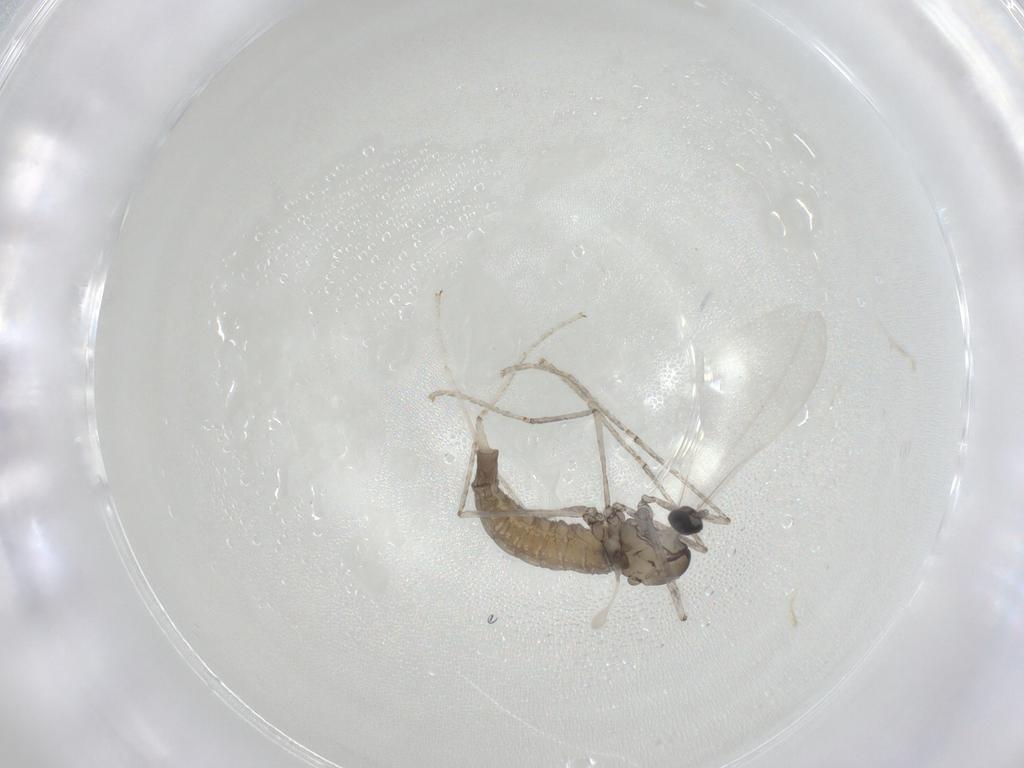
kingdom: Animalia
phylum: Arthropoda
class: Insecta
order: Diptera
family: Cecidomyiidae
